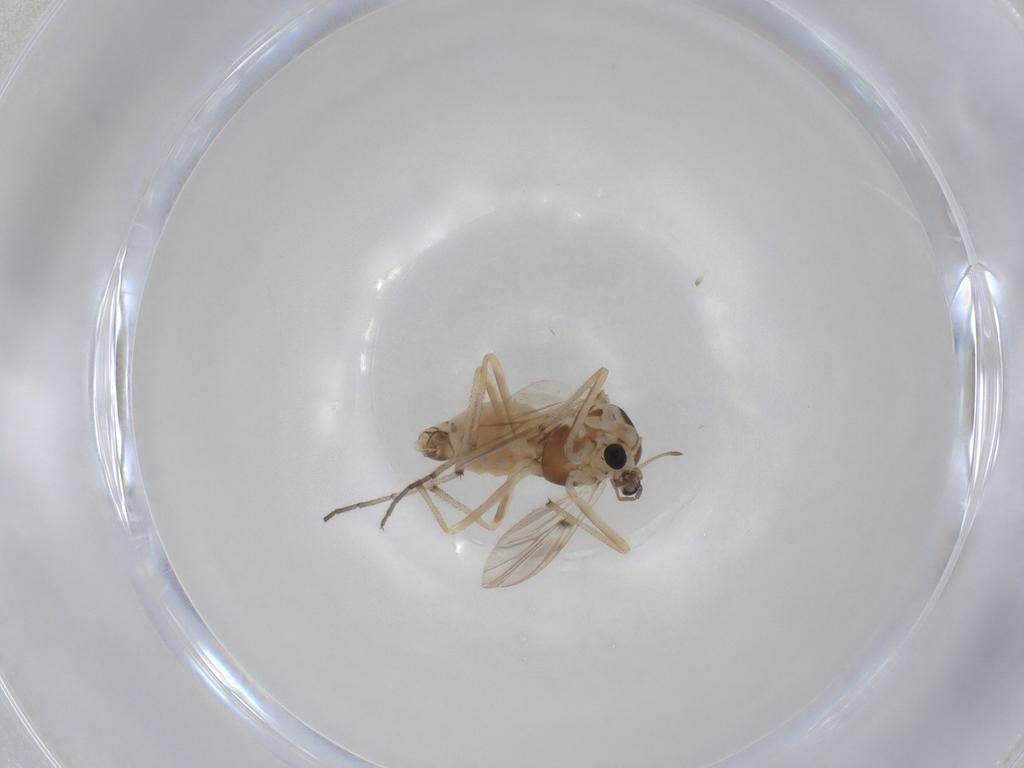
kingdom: Animalia
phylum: Arthropoda
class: Insecta
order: Diptera
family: Chironomidae
